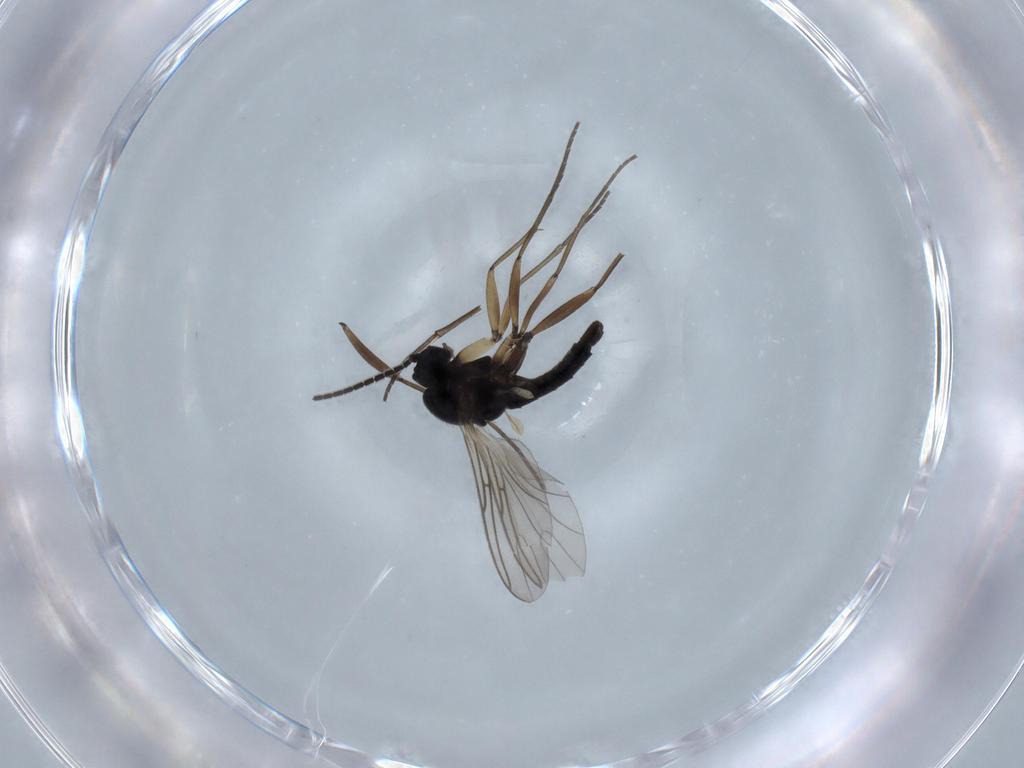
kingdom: Animalia
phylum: Arthropoda
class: Insecta
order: Diptera
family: Sciaridae
